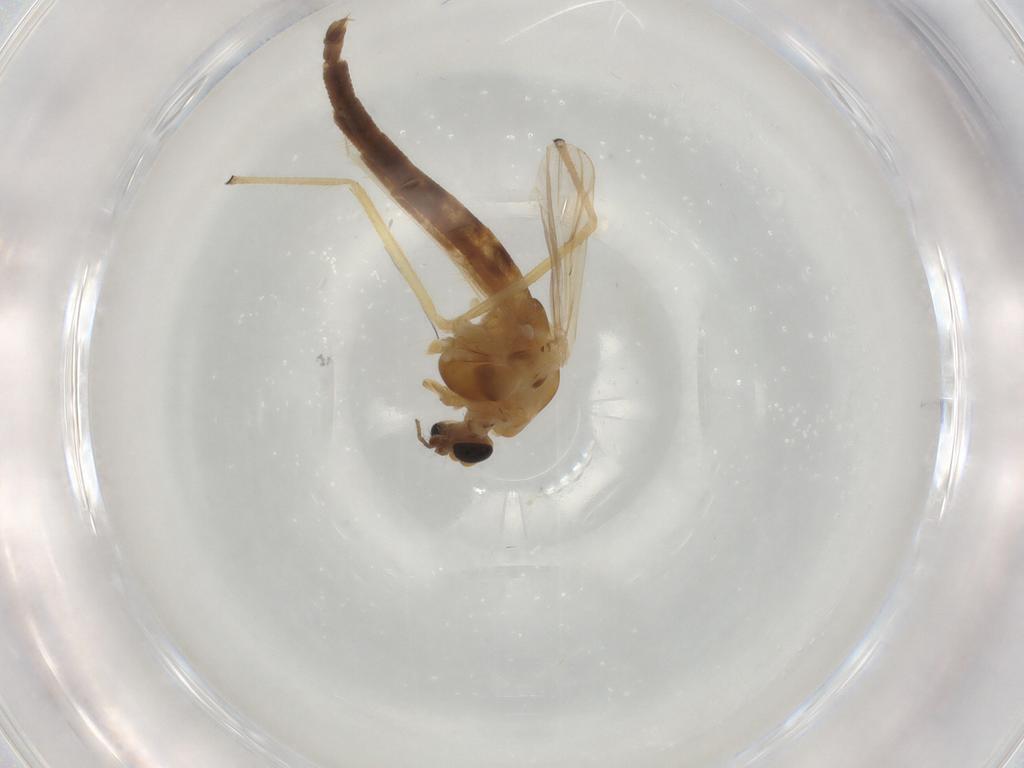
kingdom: Animalia
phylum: Arthropoda
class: Insecta
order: Diptera
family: Chironomidae
